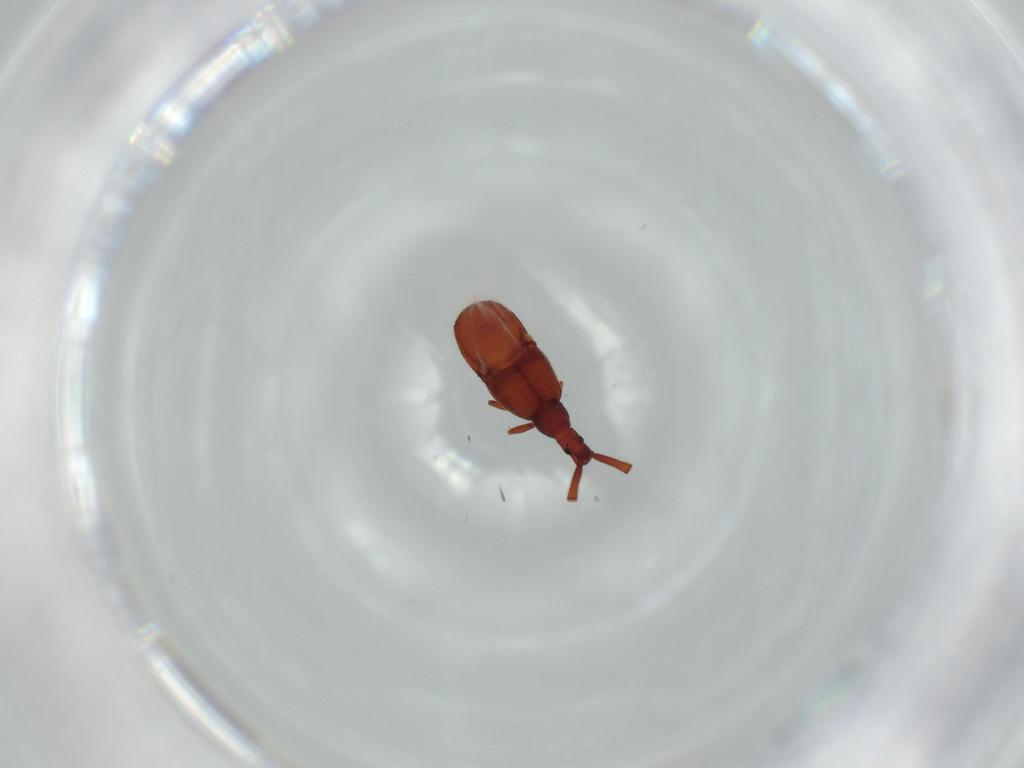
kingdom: Animalia
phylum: Arthropoda
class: Insecta
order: Coleoptera
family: Staphylinidae
